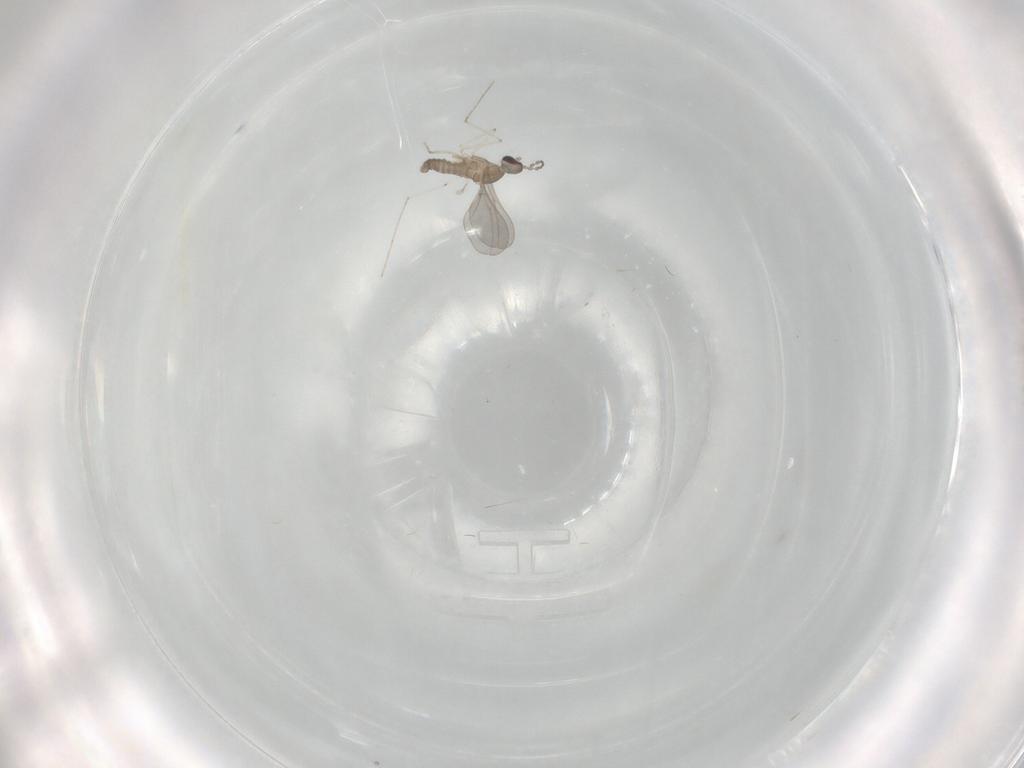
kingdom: Animalia
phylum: Arthropoda
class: Insecta
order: Diptera
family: Cecidomyiidae
